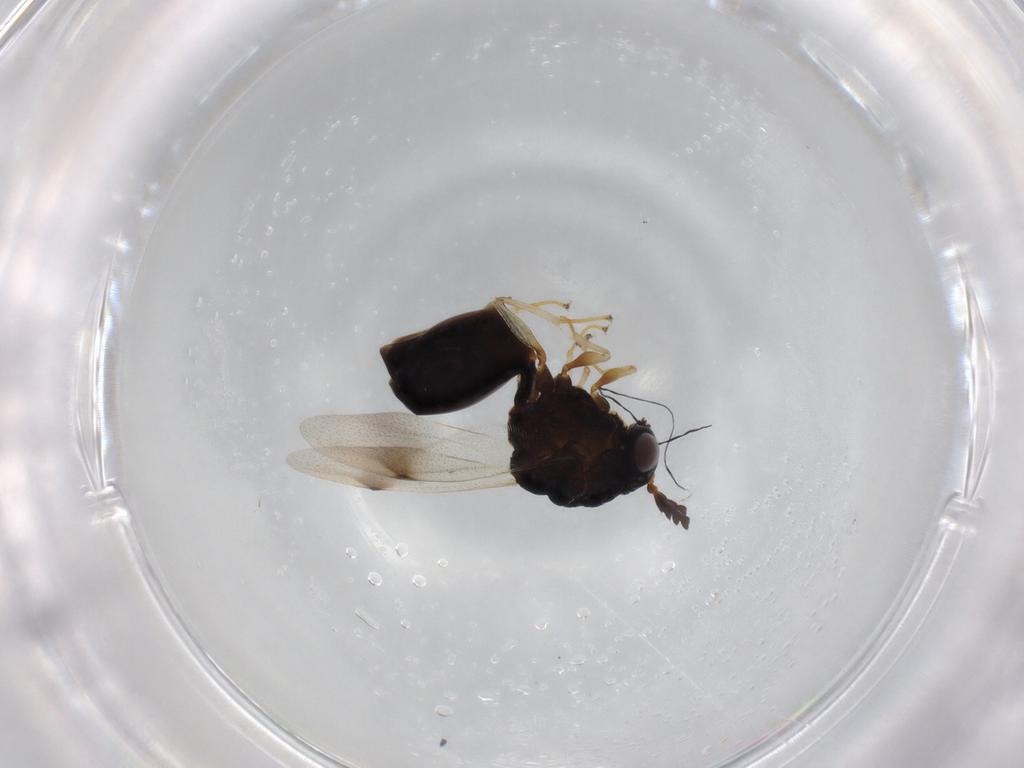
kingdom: Animalia
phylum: Arthropoda
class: Insecta
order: Hymenoptera
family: Eucharitidae
